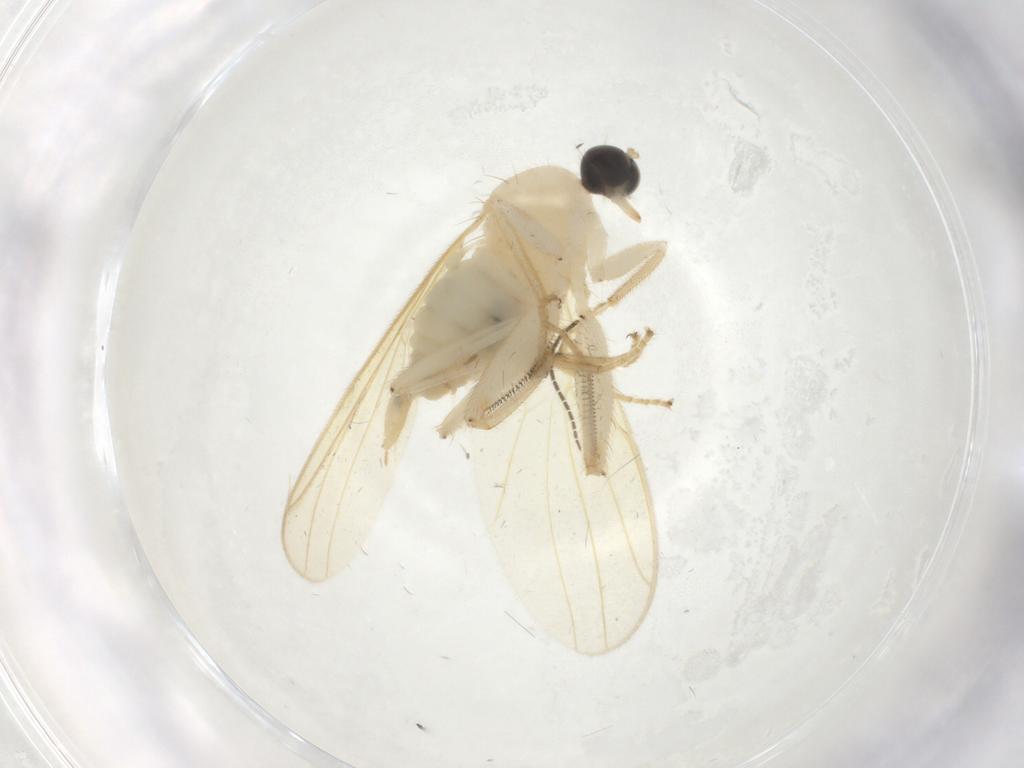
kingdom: Animalia
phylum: Arthropoda
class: Insecta
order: Diptera
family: Hybotidae
